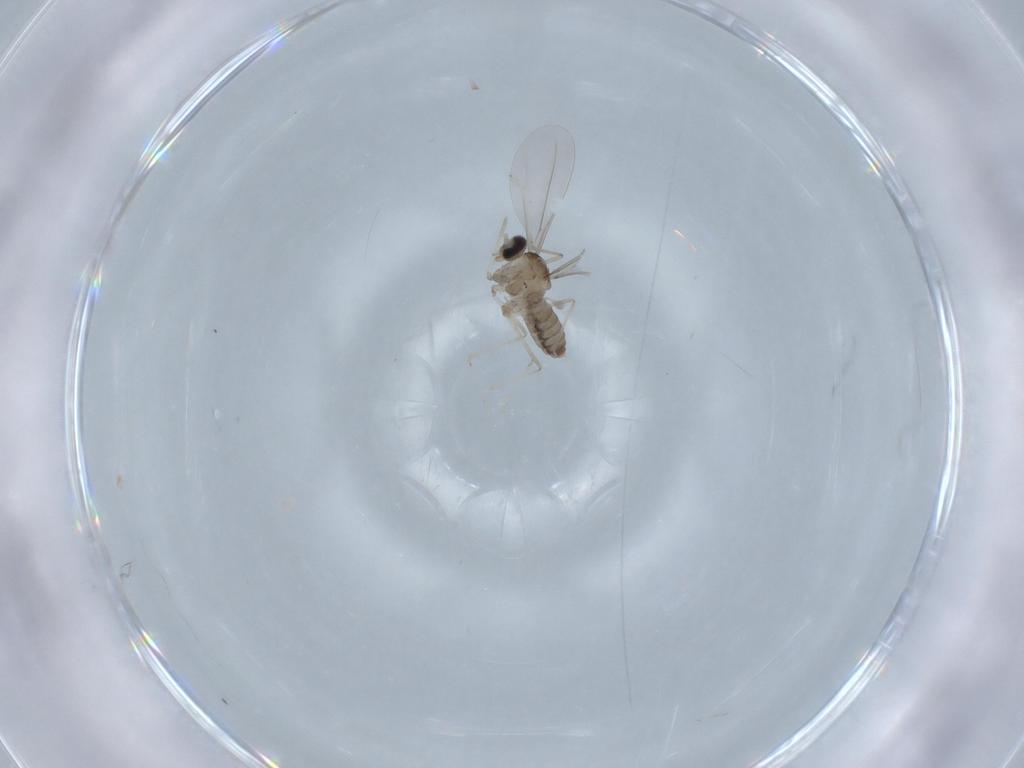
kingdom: Animalia
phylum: Arthropoda
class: Insecta
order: Diptera
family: Cecidomyiidae
